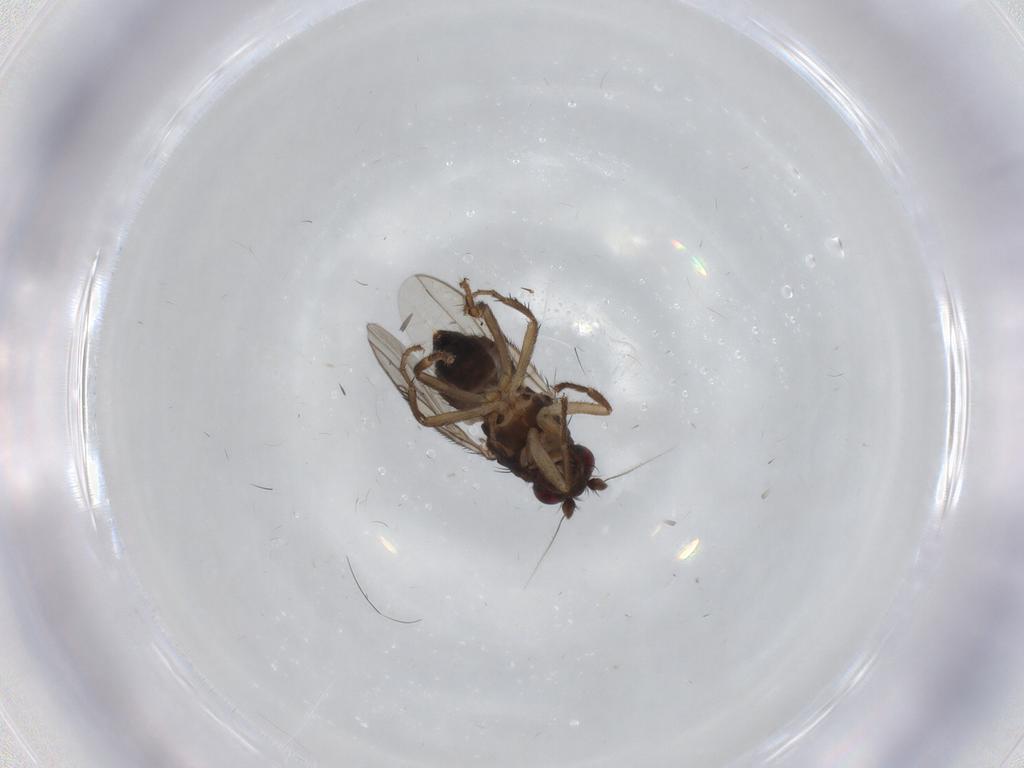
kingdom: Animalia
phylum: Arthropoda
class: Insecta
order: Diptera
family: Sphaeroceridae
